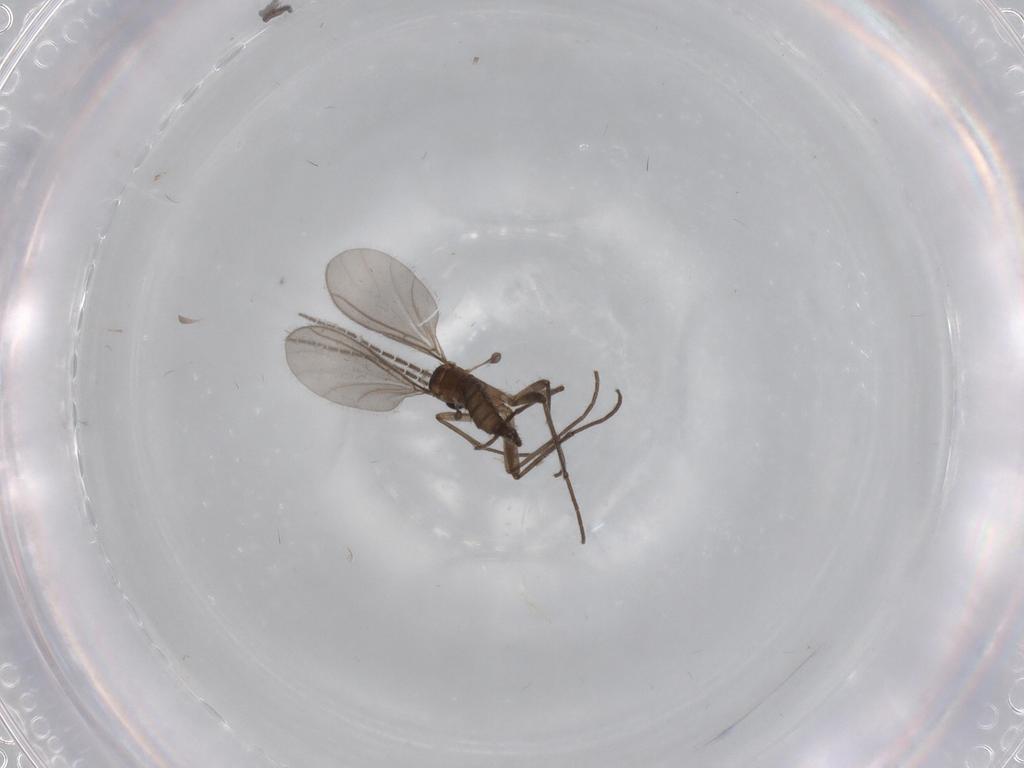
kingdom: Animalia
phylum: Arthropoda
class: Insecta
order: Diptera
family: Sciaridae
